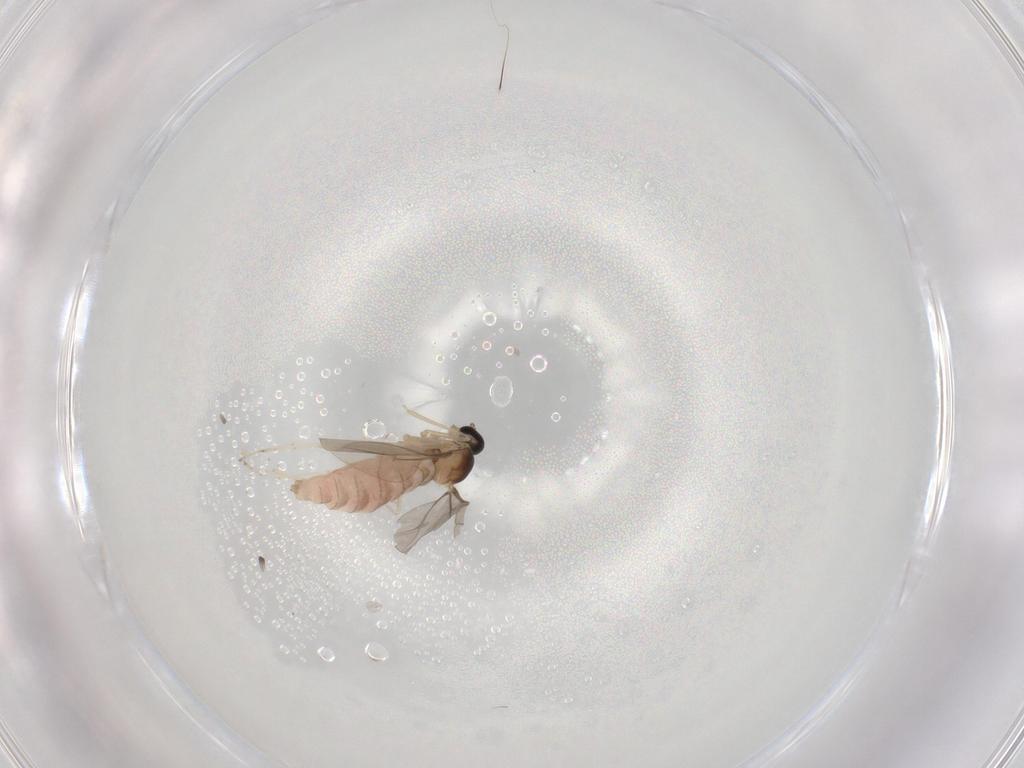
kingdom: Animalia
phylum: Arthropoda
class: Insecta
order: Diptera
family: Cecidomyiidae
